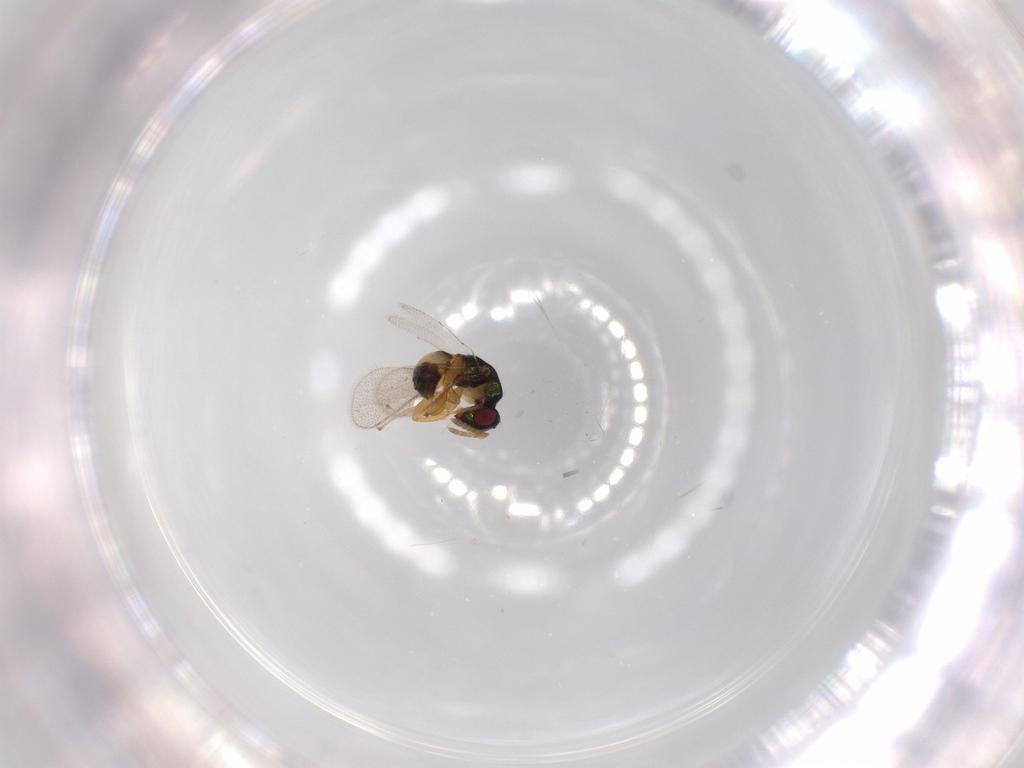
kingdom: Animalia
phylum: Arthropoda
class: Insecta
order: Hymenoptera
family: Torymidae
